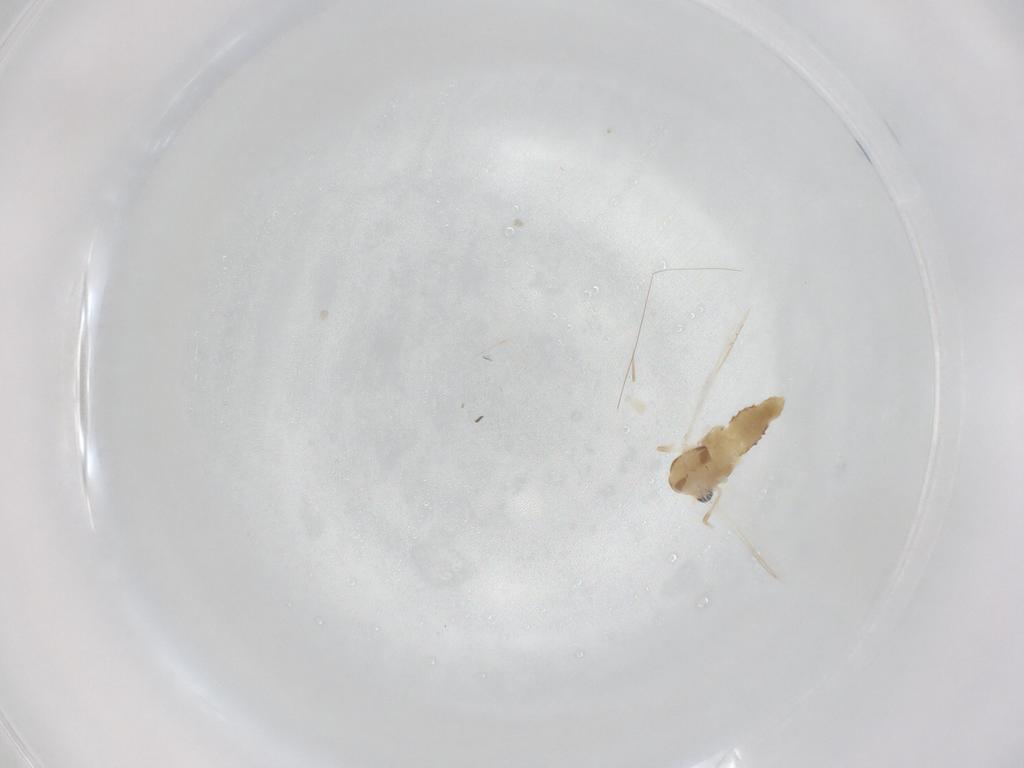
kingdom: Animalia
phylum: Arthropoda
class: Insecta
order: Diptera
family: Chironomidae
